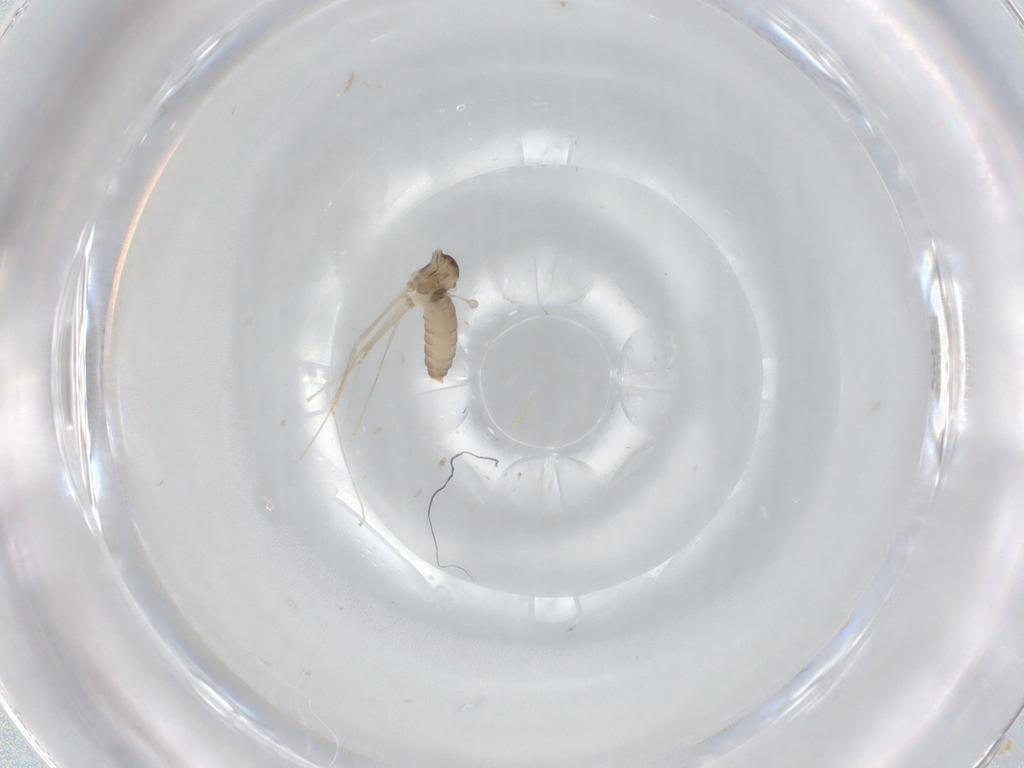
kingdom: Animalia
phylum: Arthropoda
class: Insecta
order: Diptera
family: Cecidomyiidae
